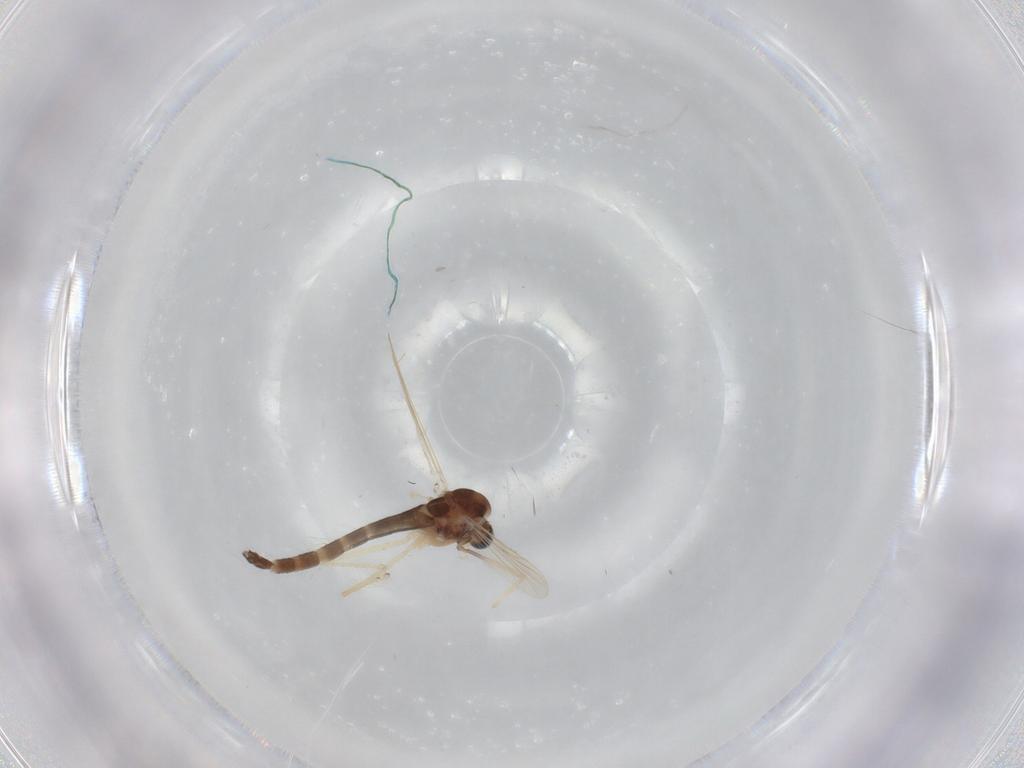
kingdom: Animalia
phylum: Arthropoda
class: Insecta
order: Diptera
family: Chironomidae
